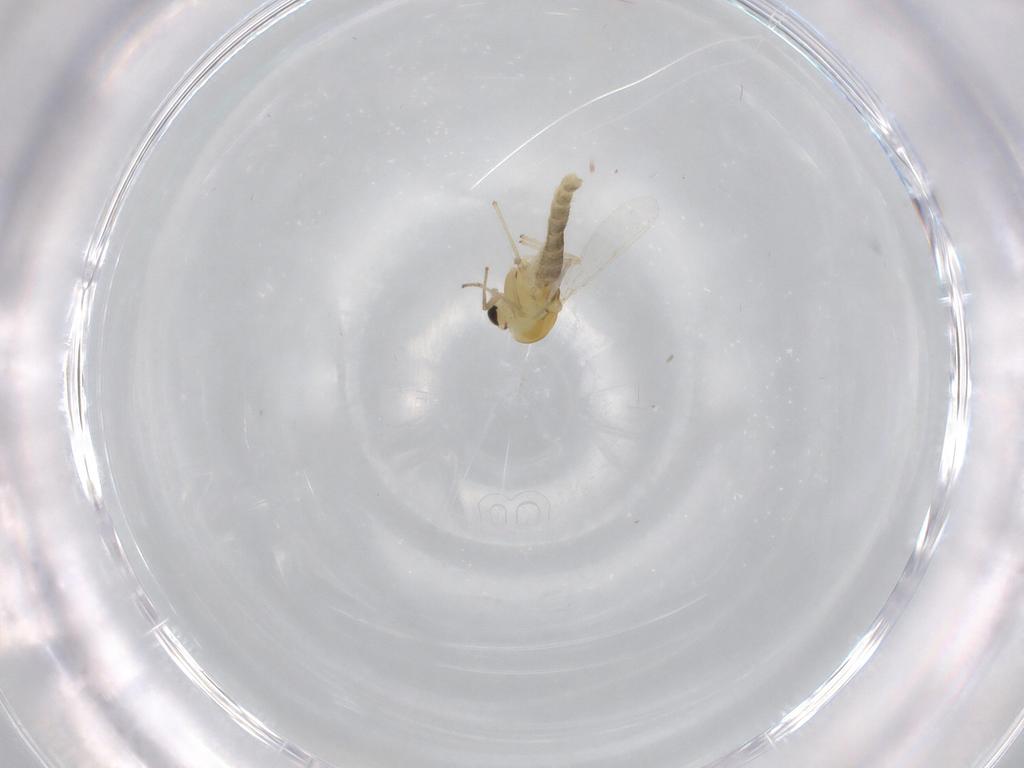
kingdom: Animalia
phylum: Arthropoda
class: Insecta
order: Diptera
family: Chironomidae
